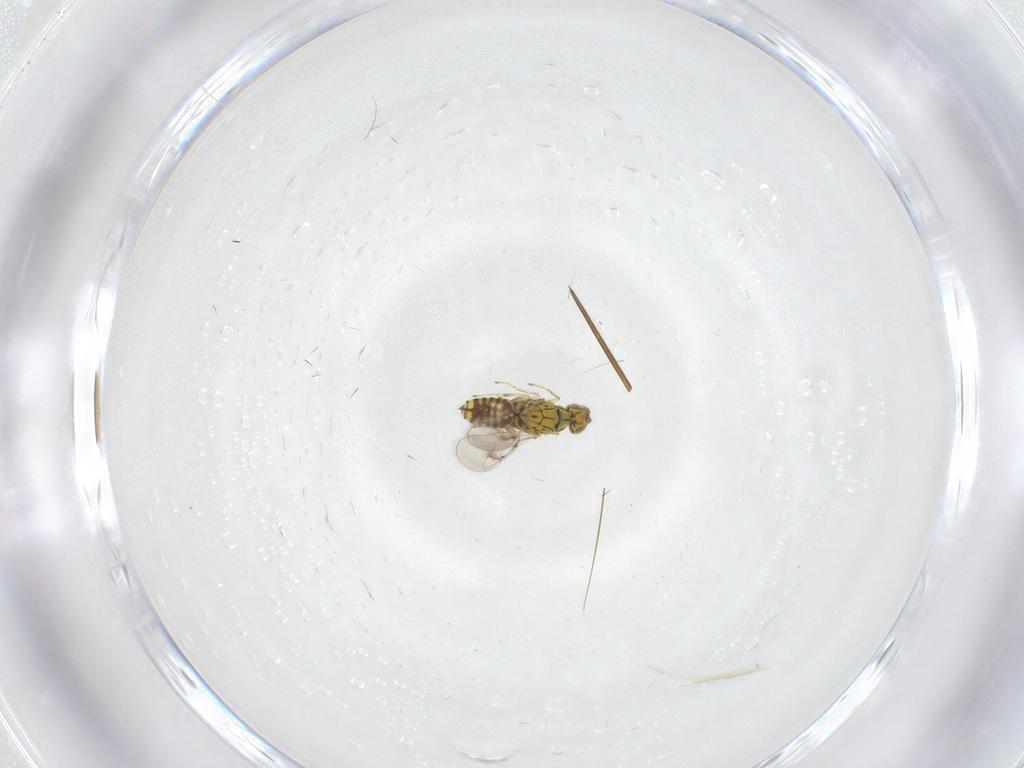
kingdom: Animalia
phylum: Arthropoda
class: Insecta
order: Hymenoptera
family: Eulophidae
